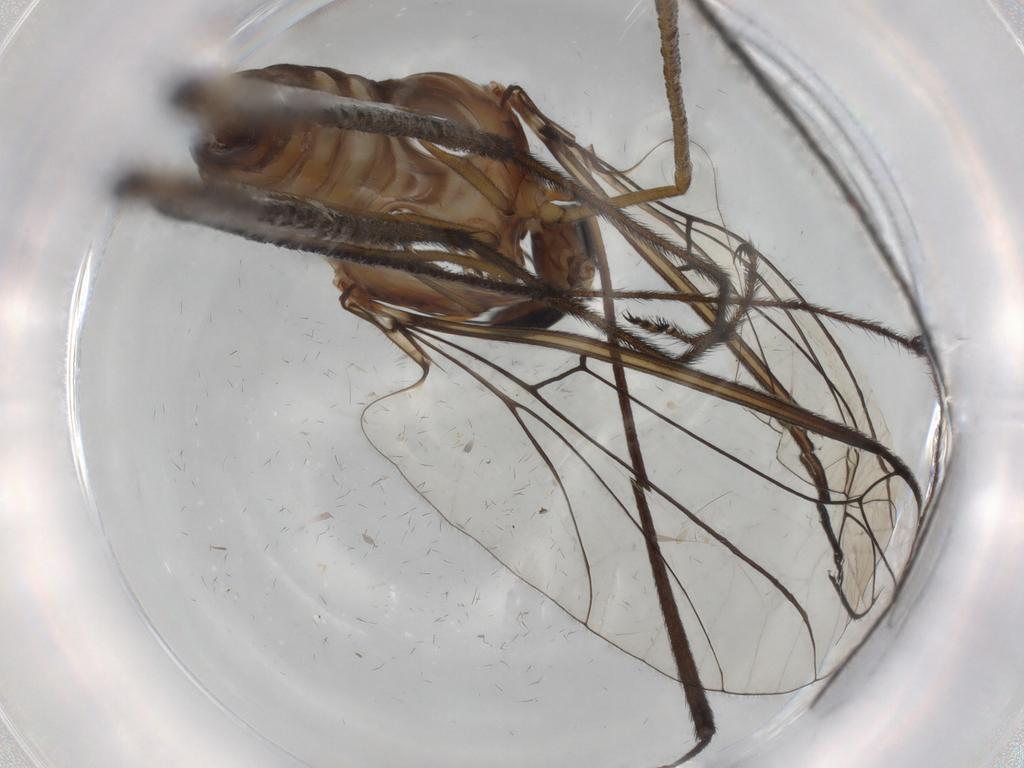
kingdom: Animalia
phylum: Arthropoda
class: Insecta
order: Diptera
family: Blephariceridae
